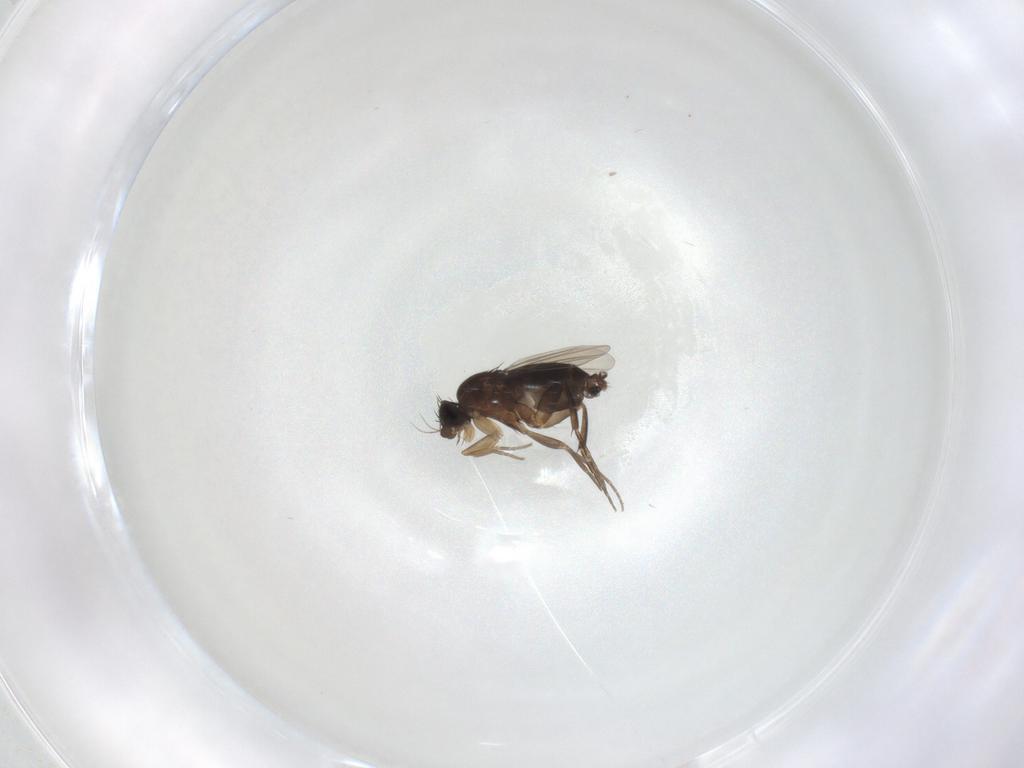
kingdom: Animalia
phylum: Arthropoda
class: Insecta
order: Diptera
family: Phoridae
